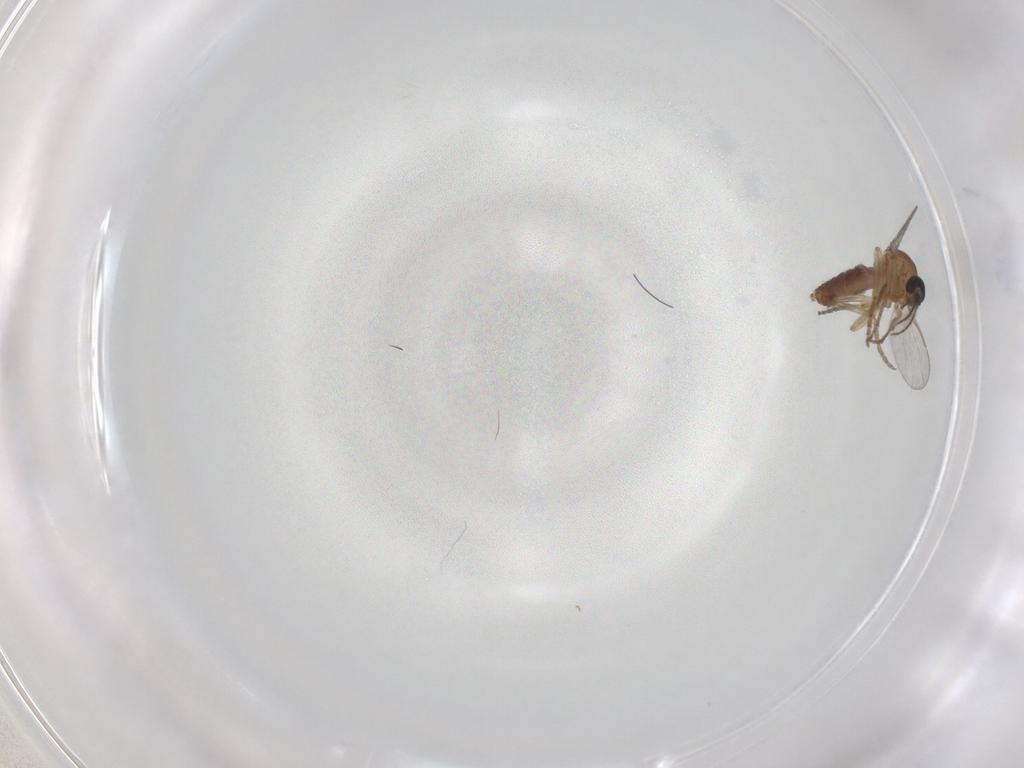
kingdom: Animalia
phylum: Arthropoda
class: Insecta
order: Diptera
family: Ceratopogonidae
